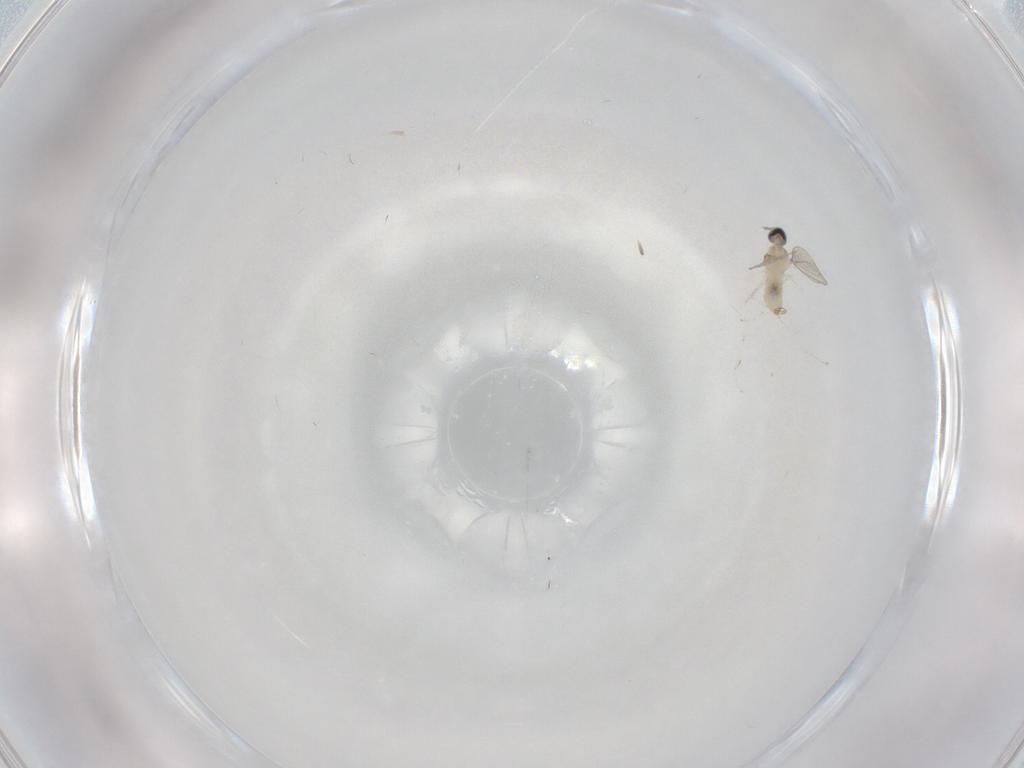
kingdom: Animalia
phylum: Arthropoda
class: Insecta
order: Diptera
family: Cecidomyiidae
